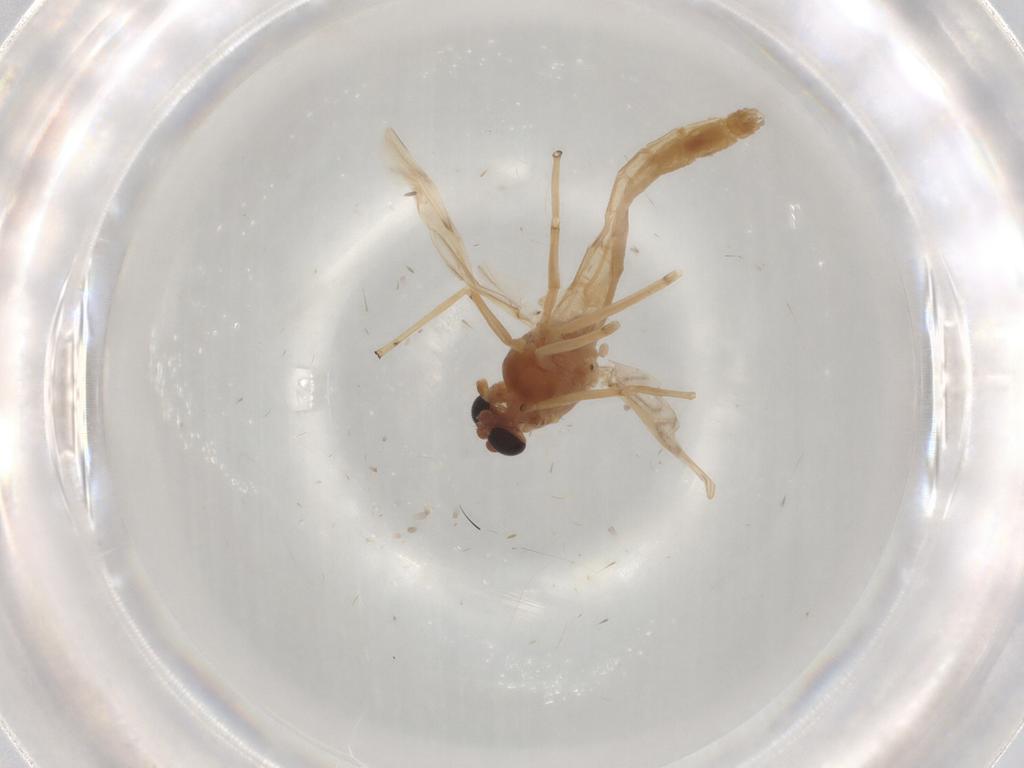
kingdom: Animalia
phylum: Arthropoda
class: Insecta
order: Diptera
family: Chironomidae
